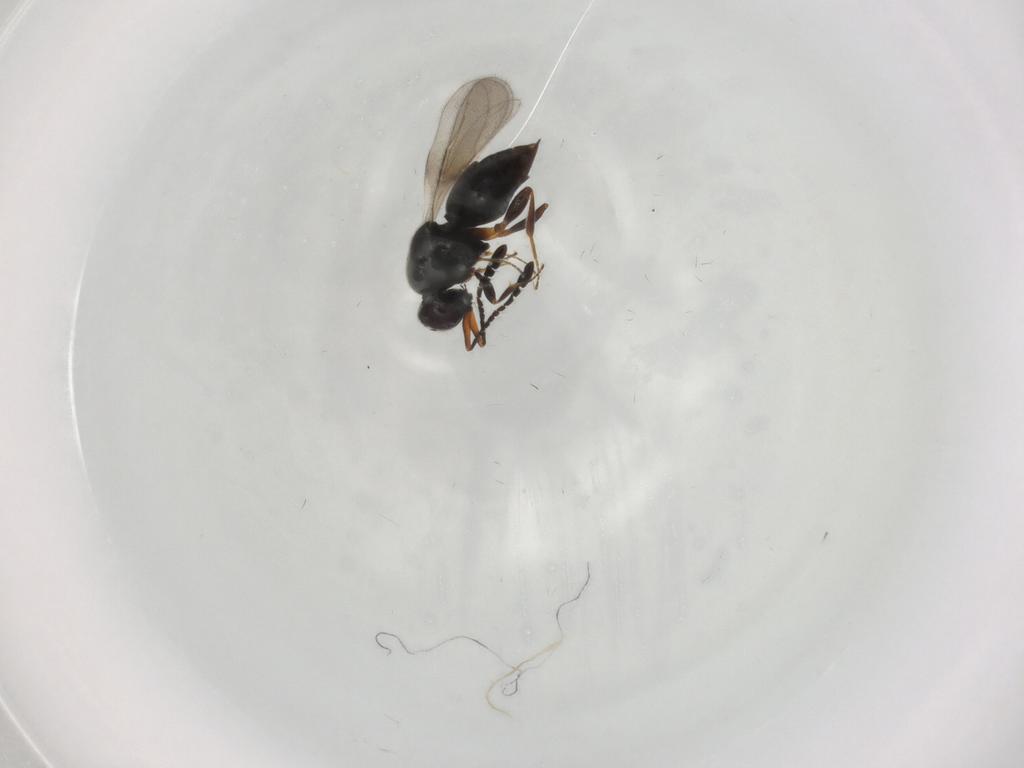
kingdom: Animalia
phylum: Arthropoda
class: Insecta
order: Hymenoptera
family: Ceraphronidae
